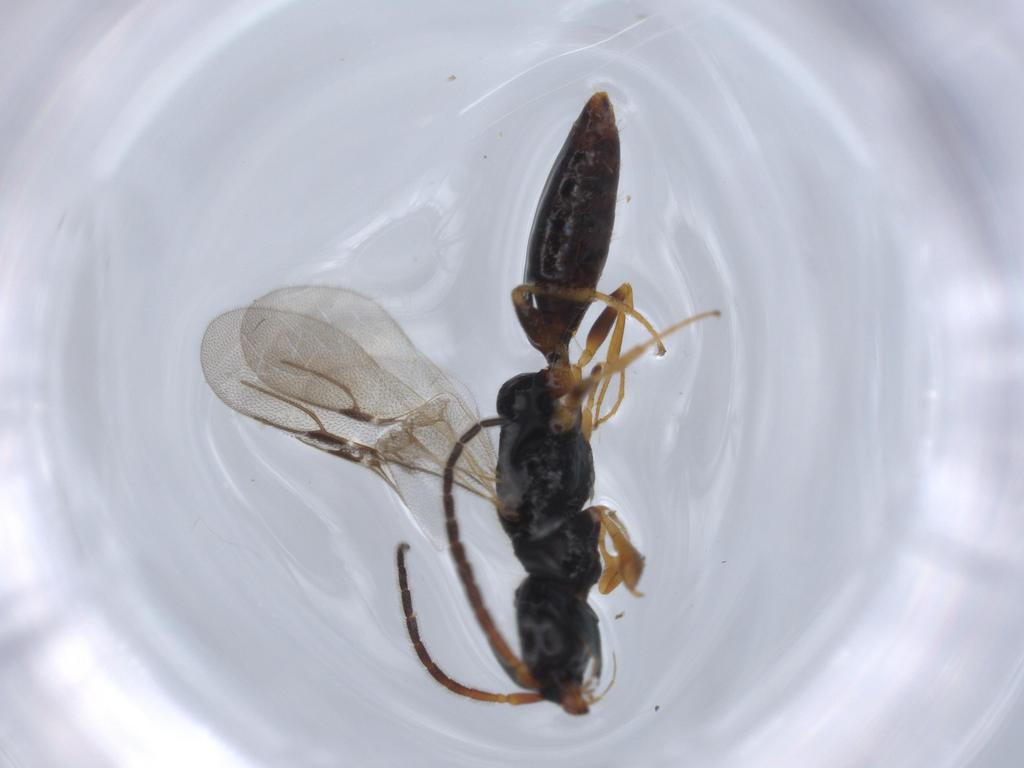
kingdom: Animalia
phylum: Arthropoda
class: Insecta
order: Hymenoptera
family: Bethylidae
